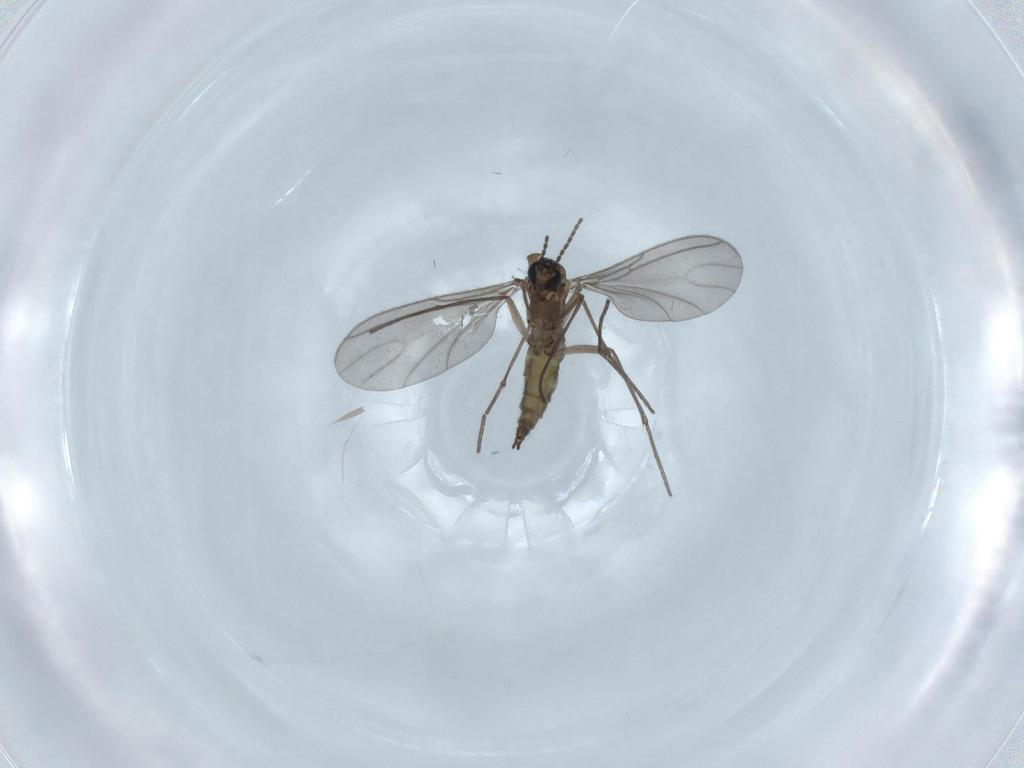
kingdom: Animalia
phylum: Arthropoda
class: Insecta
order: Diptera
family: Sciaridae
